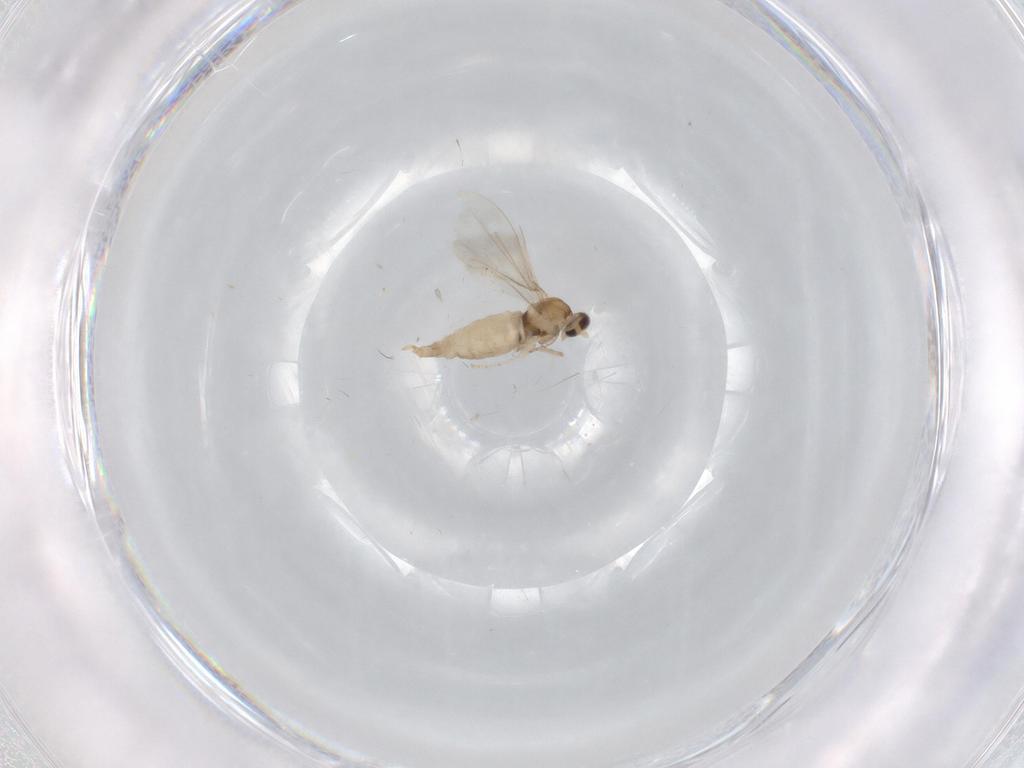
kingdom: Animalia
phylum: Arthropoda
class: Insecta
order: Diptera
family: Cecidomyiidae
